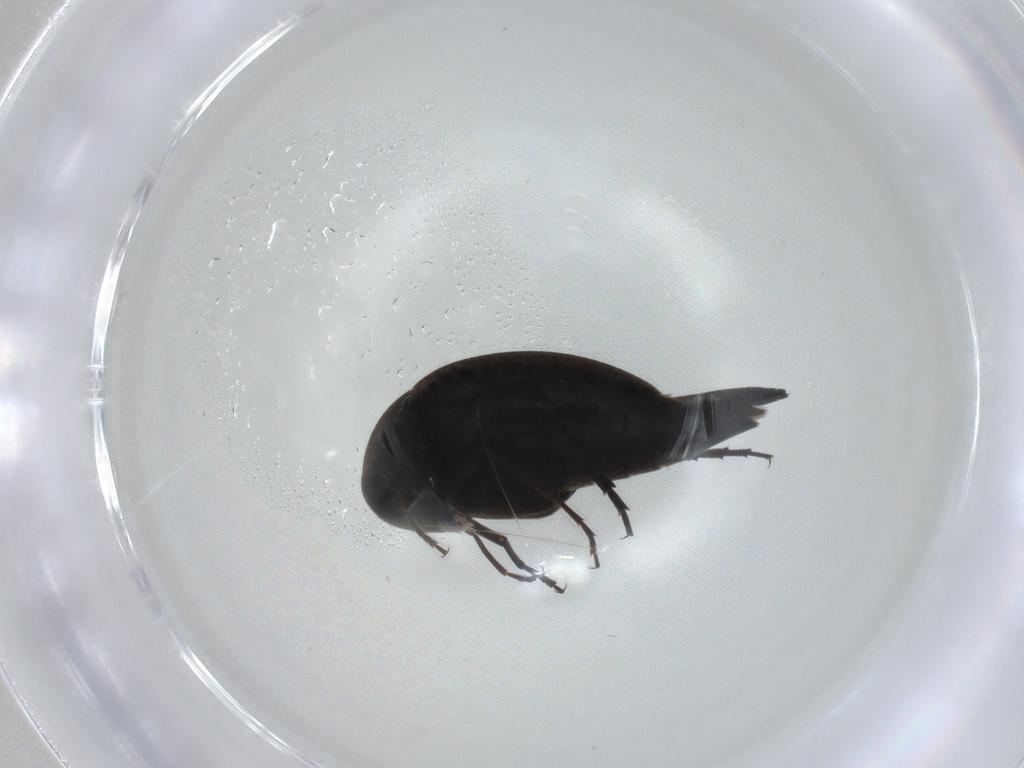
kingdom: Animalia
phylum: Arthropoda
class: Insecta
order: Coleoptera
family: Mordellidae
